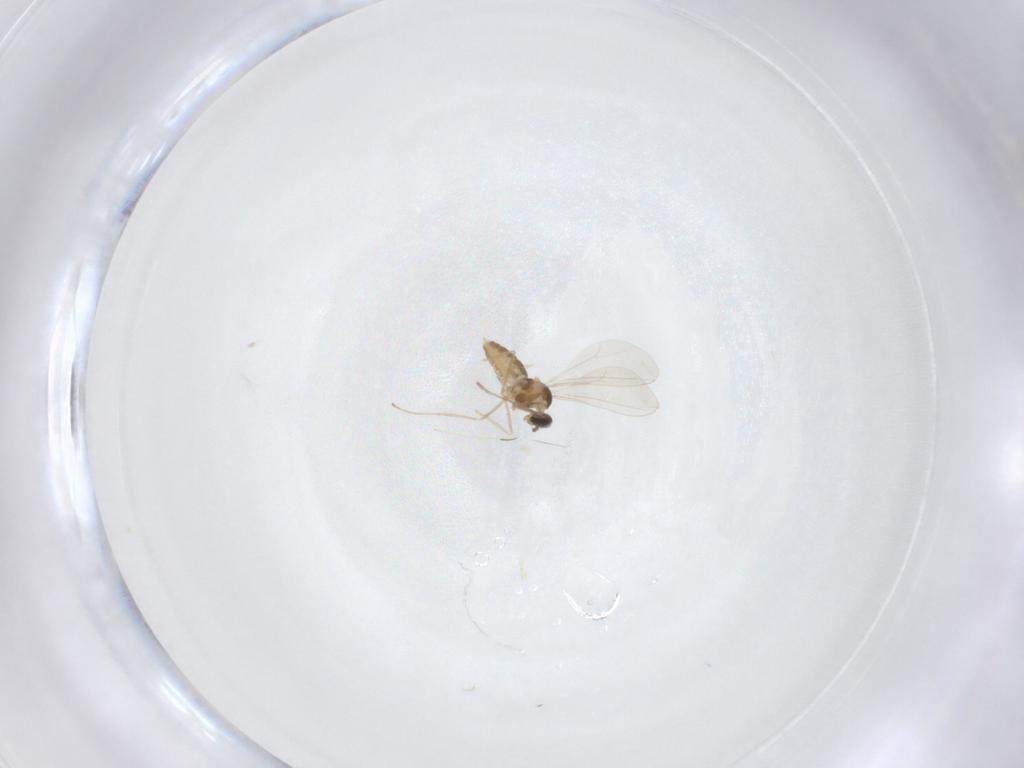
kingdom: Animalia
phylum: Arthropoda
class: Insecta
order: Diptera
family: Cecidomyiidae
